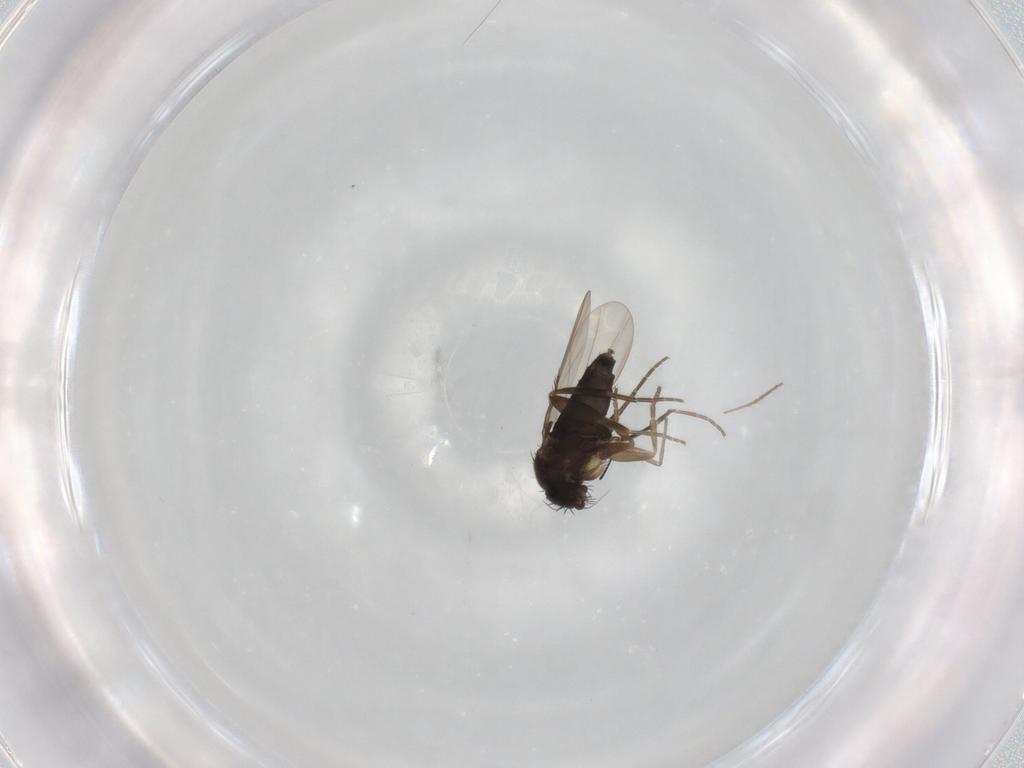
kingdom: Animalia
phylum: Arthropoda
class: Insecta
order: Diptera
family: Phoridae
